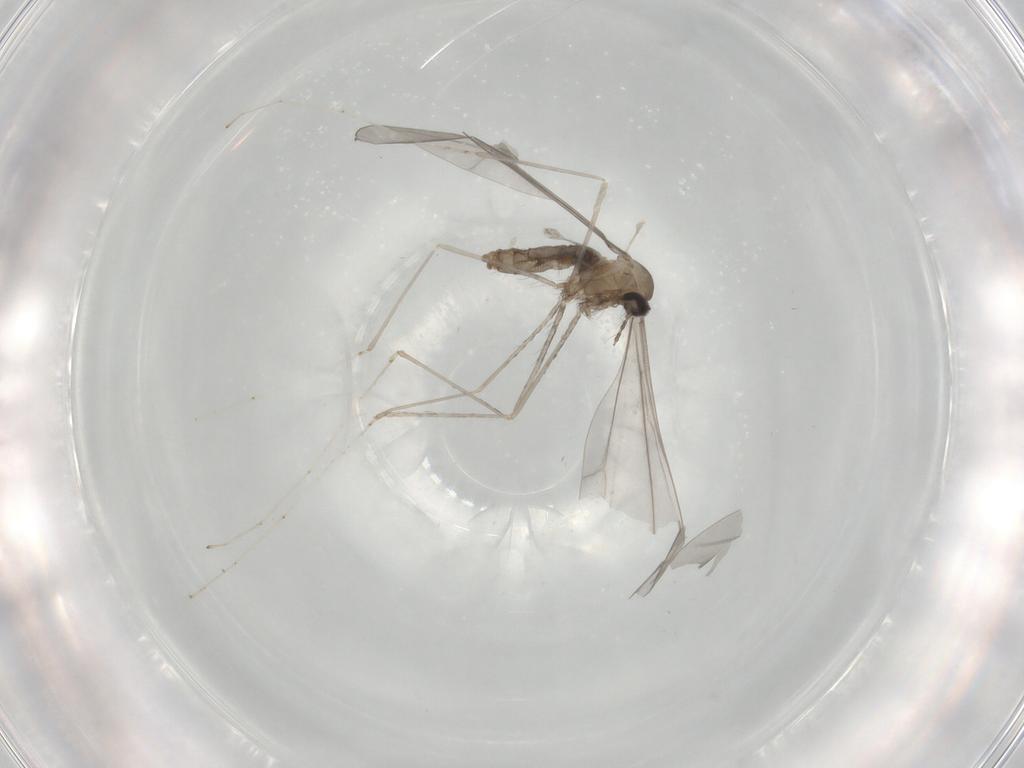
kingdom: Animalia
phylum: Arthropoda
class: Insecta
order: Diptera
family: Cecidomyiidae
